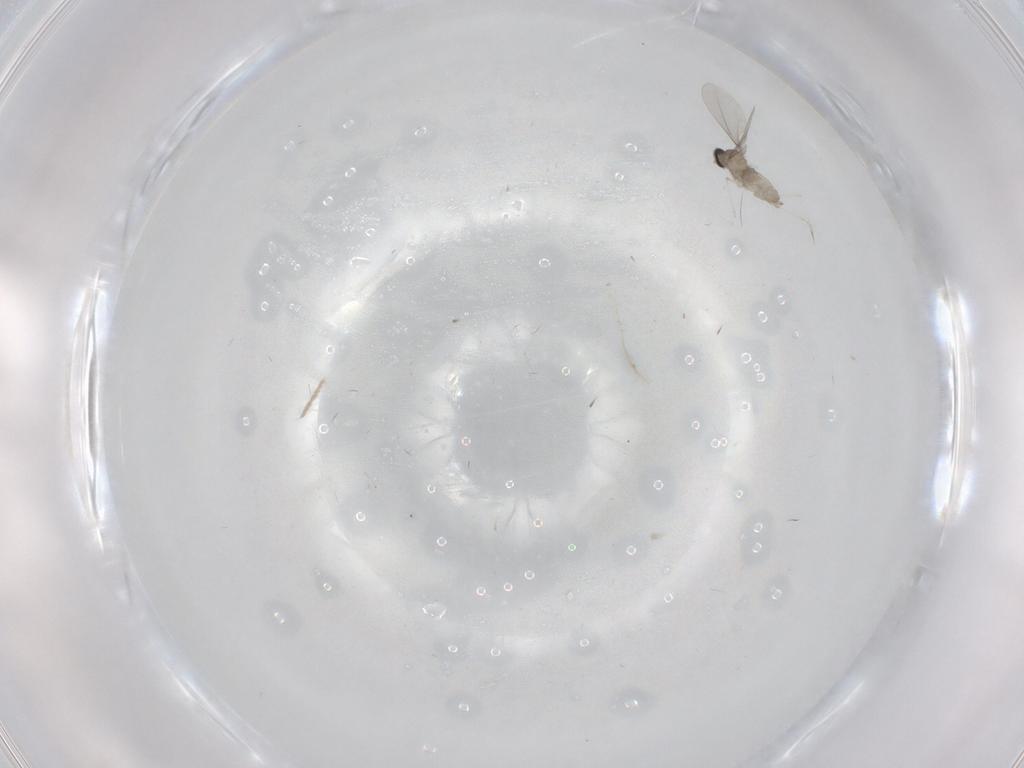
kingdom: Animalia
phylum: Arthropoda
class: Insecta
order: Diptera
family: Cecidomyiidae
